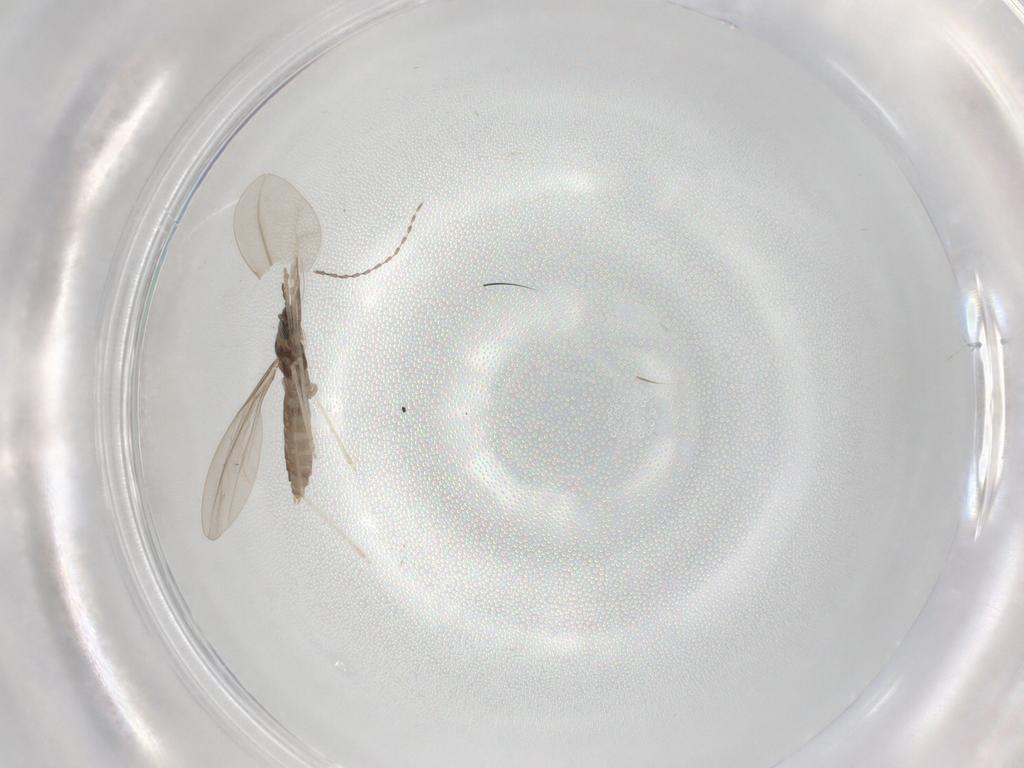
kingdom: Animalia
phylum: Arthropoda
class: Insecta
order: Diptera
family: Cecidomyiidae
